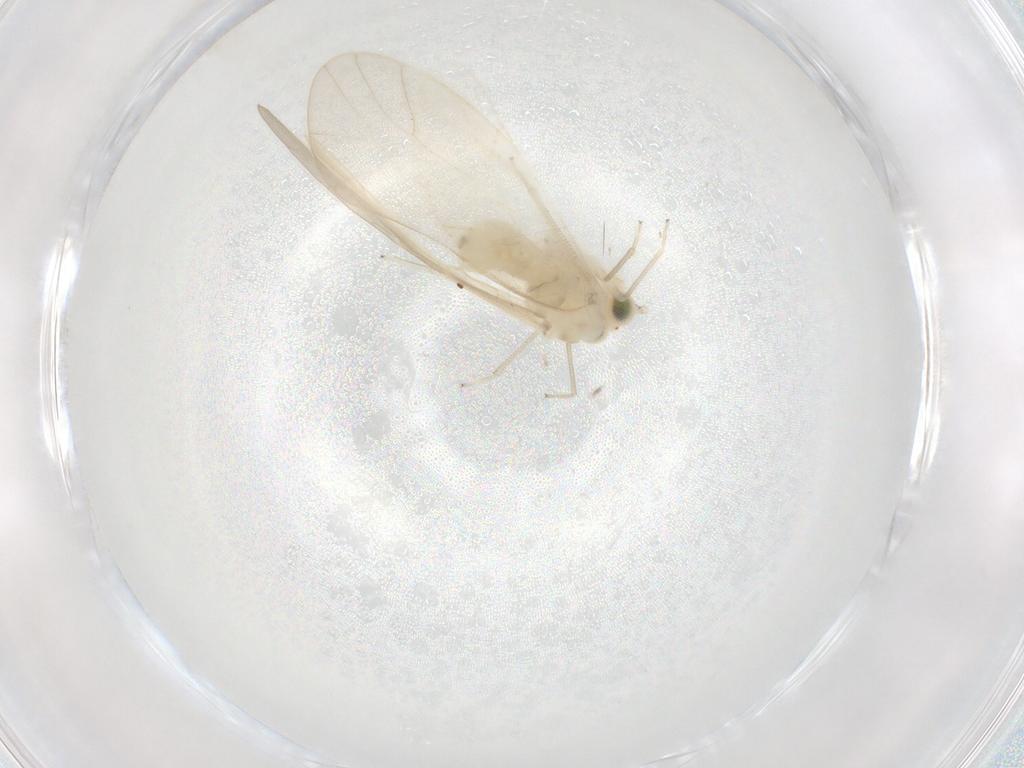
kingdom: Animalia
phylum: Arthropoda
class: Insecta
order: Psocodea
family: Caeciliusidae
